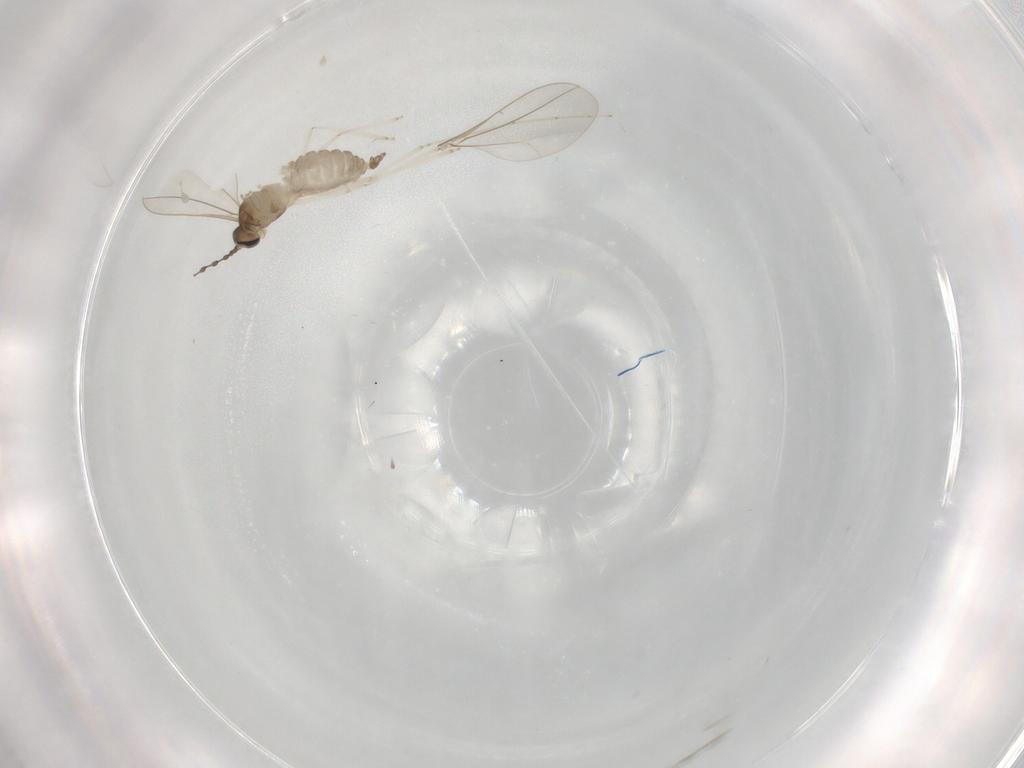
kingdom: Animalia
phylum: Arthropoda
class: Insecta
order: Diptera
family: Cecidomyiidae
